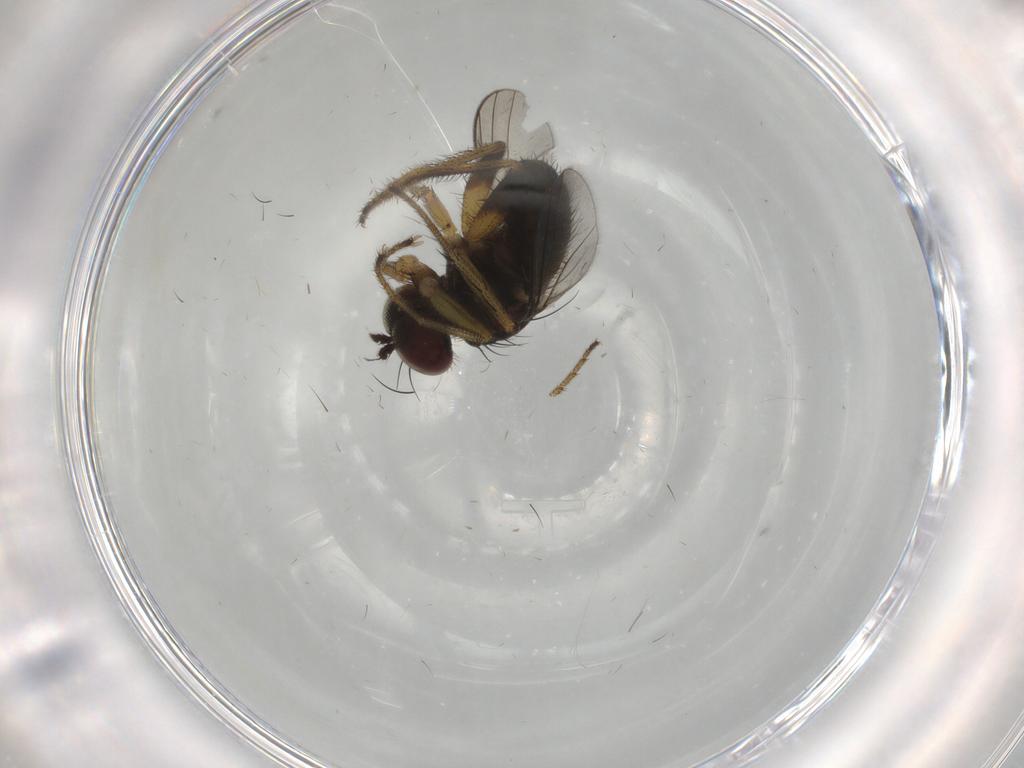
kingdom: Animalia
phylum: Arthropoda
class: Insecta
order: Diptera
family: Dolichopodidae
